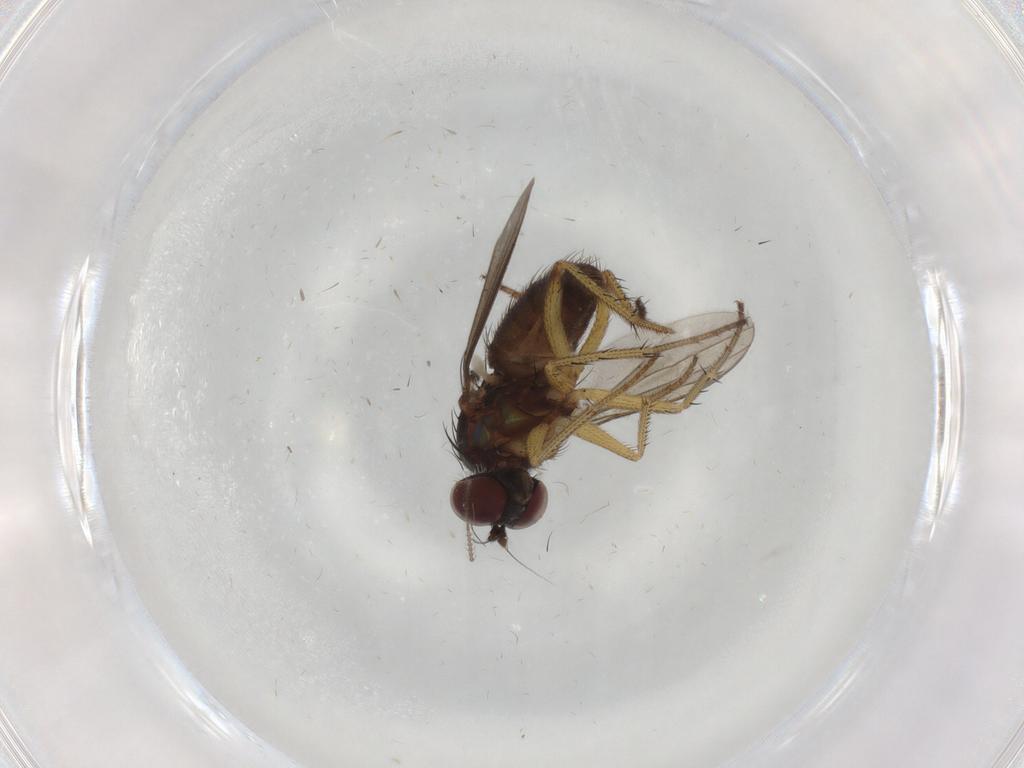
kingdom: Animalia
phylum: Arthropoda
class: Insecta
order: Diptera
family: Dolichopodidae
